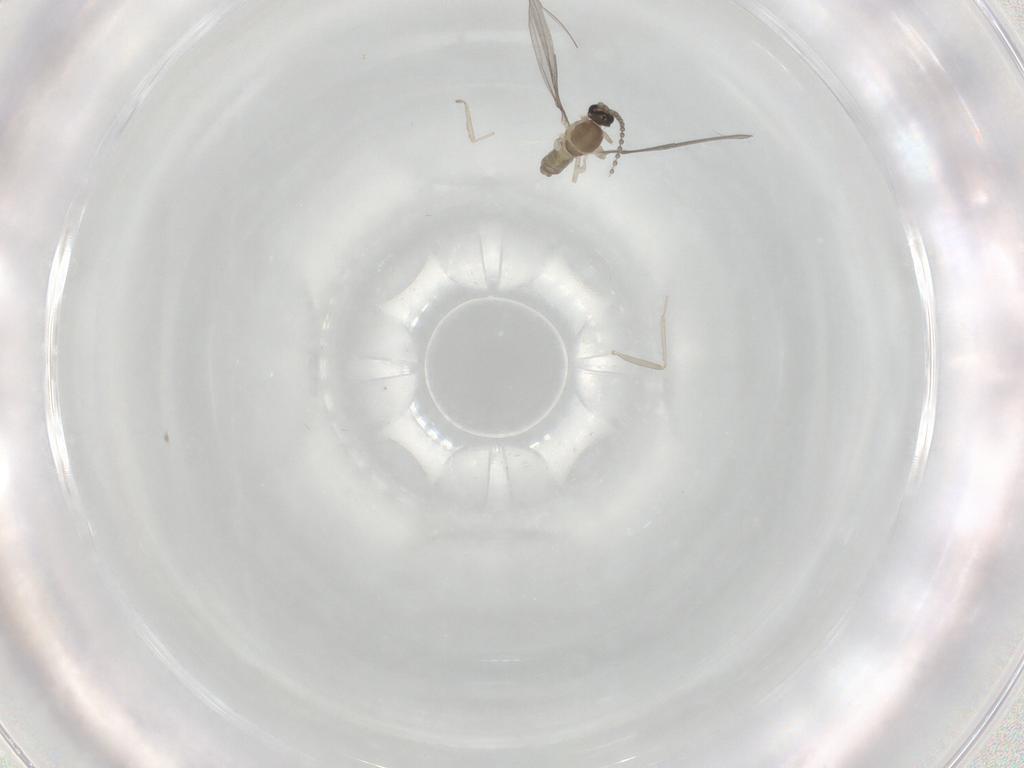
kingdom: Animalia
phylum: Arthropoda
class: Insecta
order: Diptera
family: Cecidomyiidae
